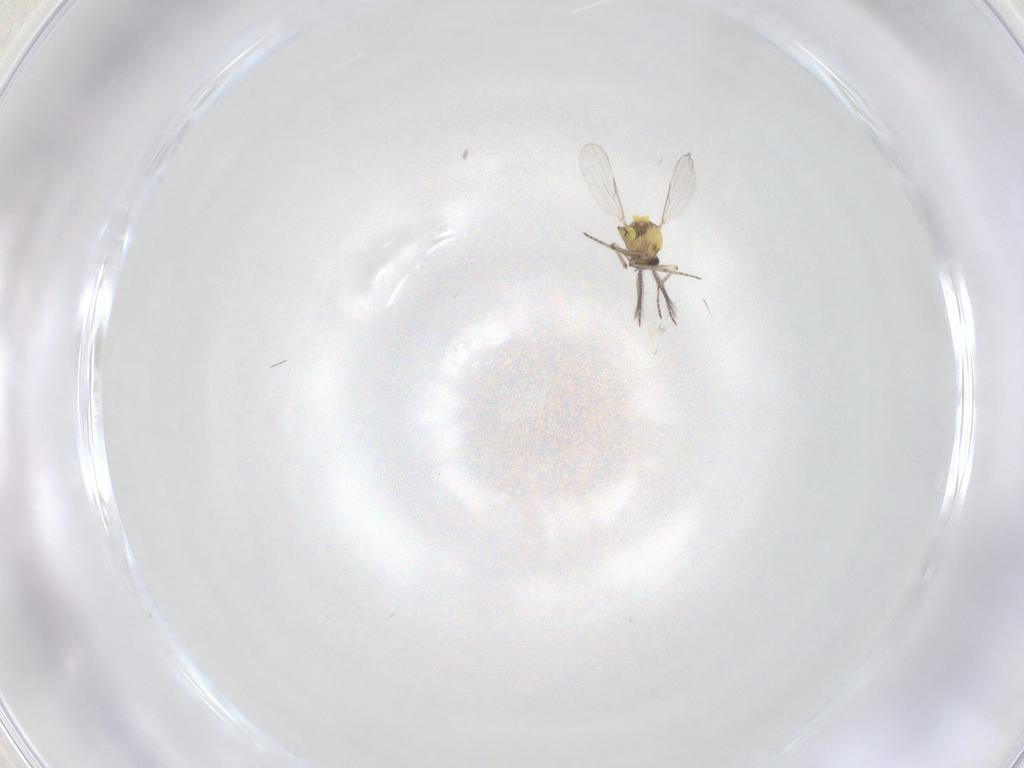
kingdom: Animalia
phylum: Arthropoda
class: Insecta
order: Diptera
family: Ceratopogonidae
